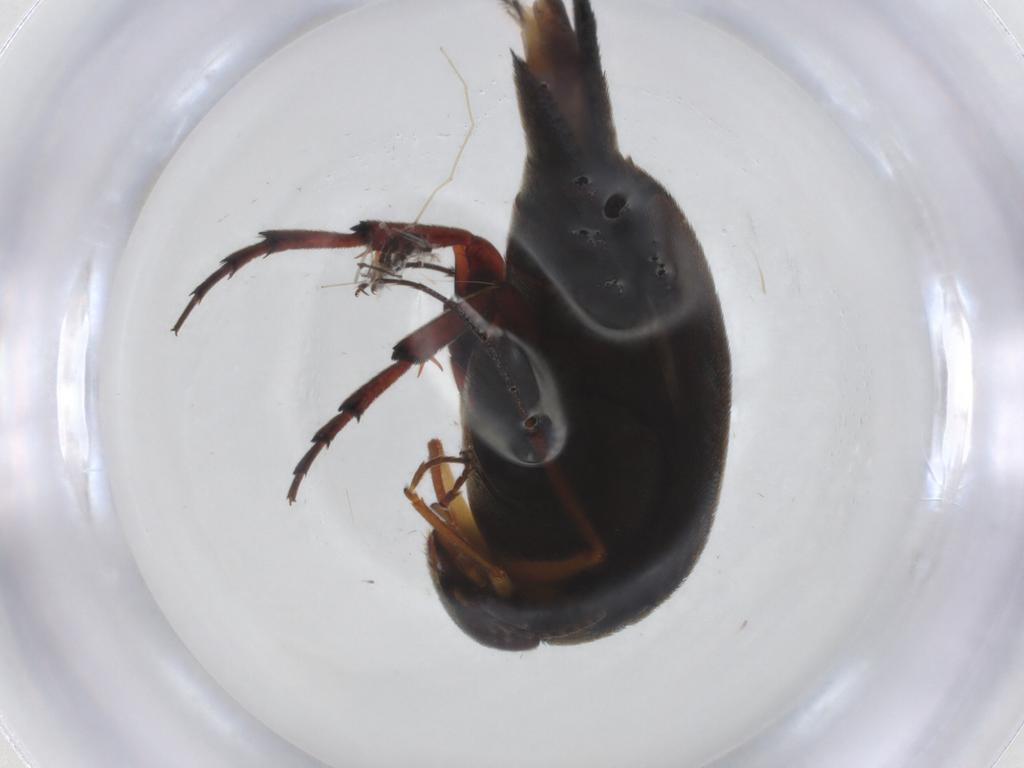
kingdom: Animalia
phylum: Arthropoda
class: Insecta
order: Coleoptera
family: Mordellidae
